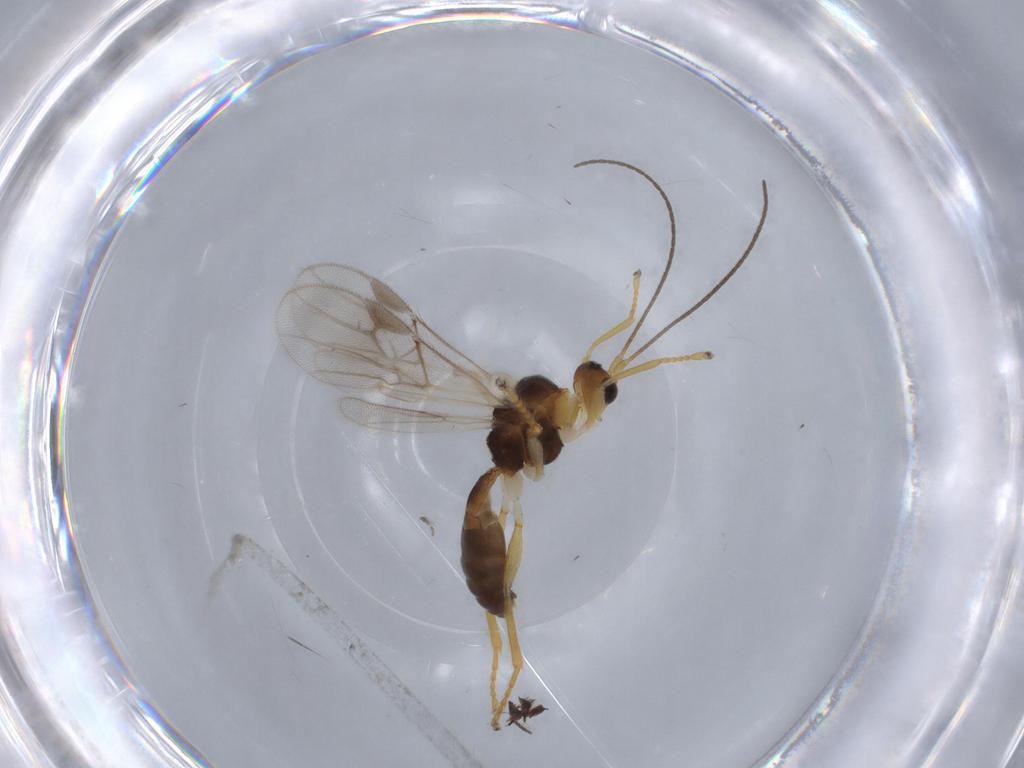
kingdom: Animalia
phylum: Arthropoda
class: Insecta
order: Hymenoptera
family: Braconidae
